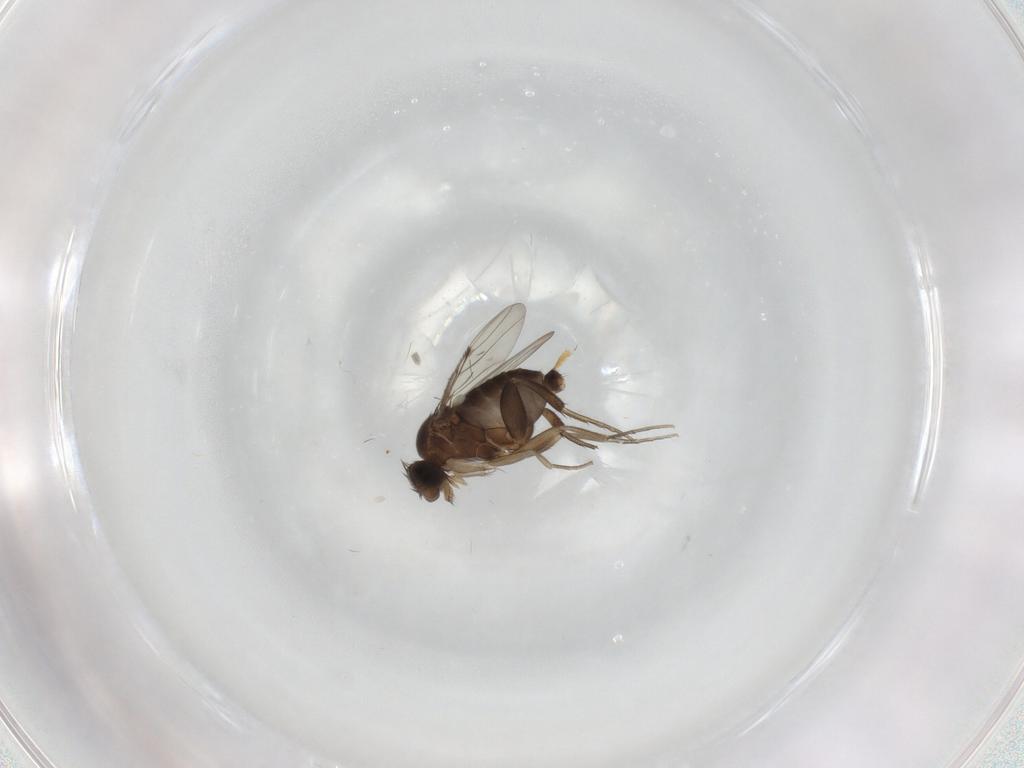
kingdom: Animalia
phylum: Arthropoda
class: Insecta
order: Diptera
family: Phoridae
